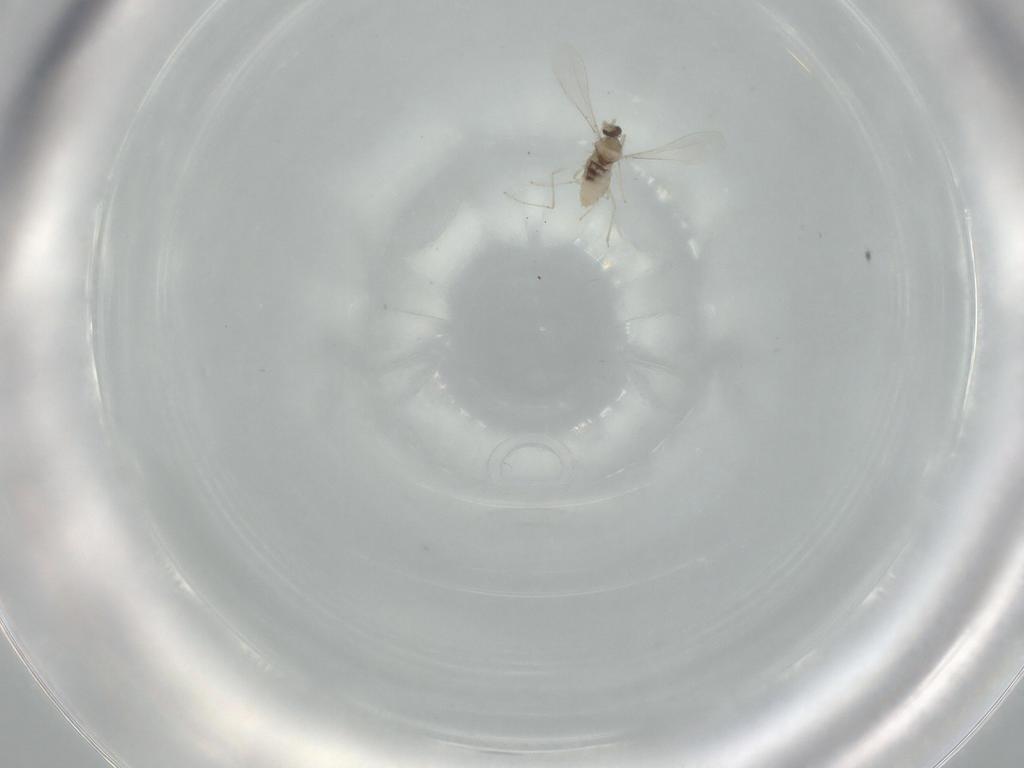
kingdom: Animalia
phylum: Arthropoda
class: Insecta
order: Diptera
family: Cecidomyiidae
